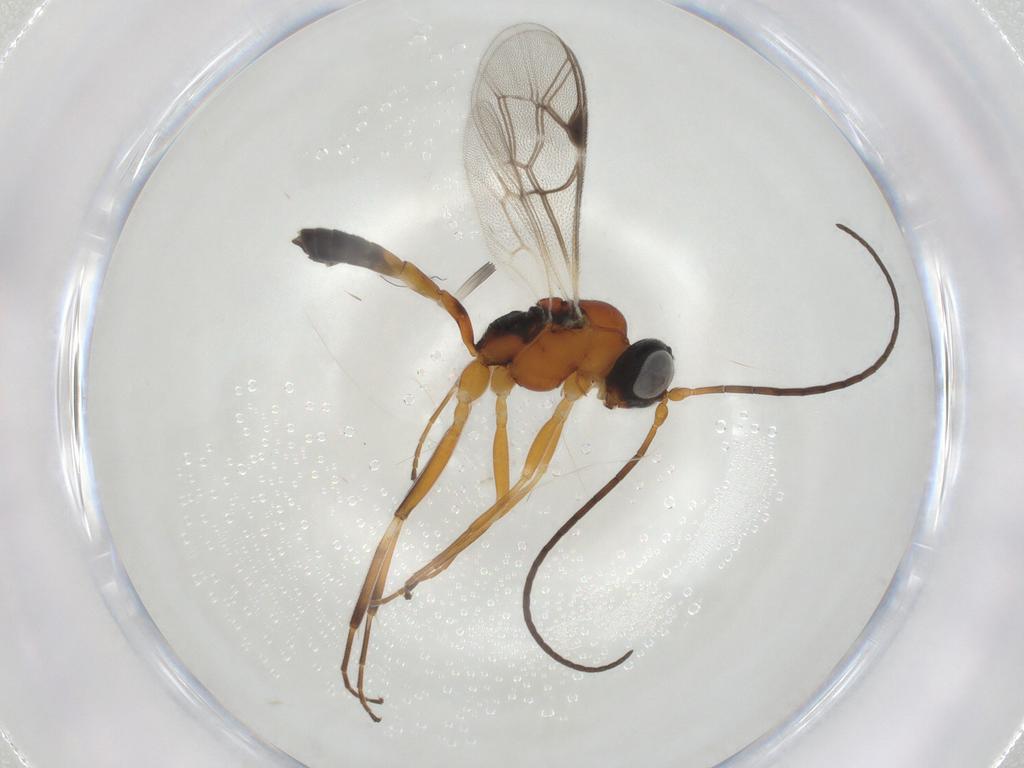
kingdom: Animalia
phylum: Arthropoda
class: Insecta
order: Hymenoptera
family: Ichneumonidae
